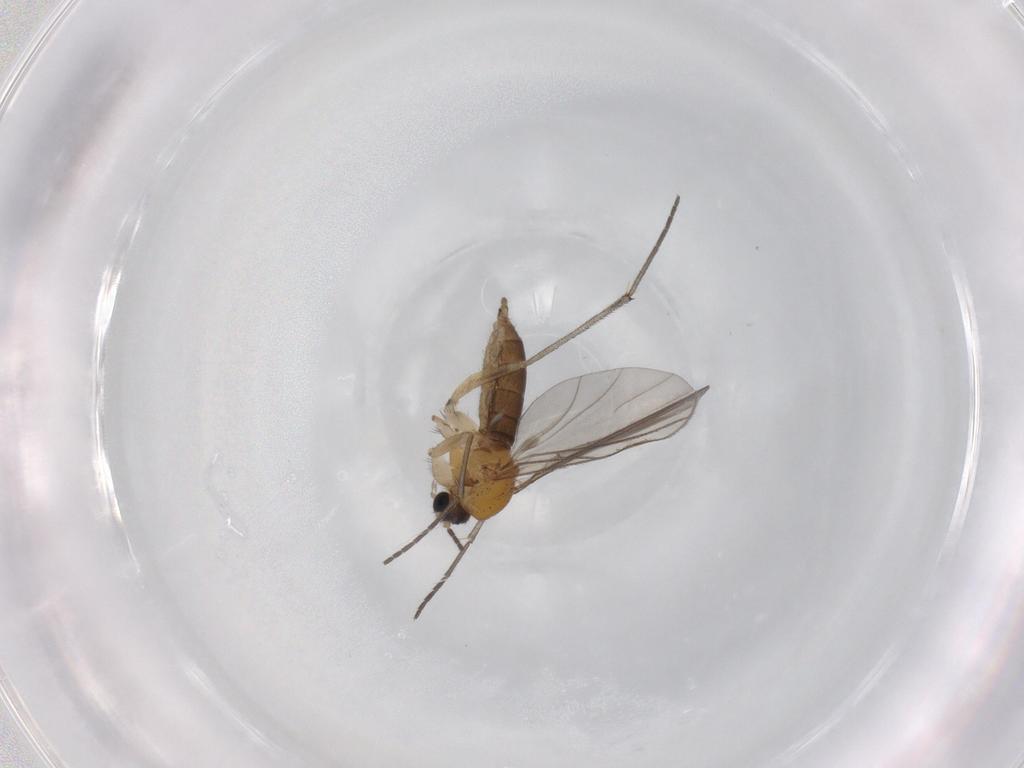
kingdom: Animalia
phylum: Arthropoda
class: Insecta
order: Diptera
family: Sciaridae
